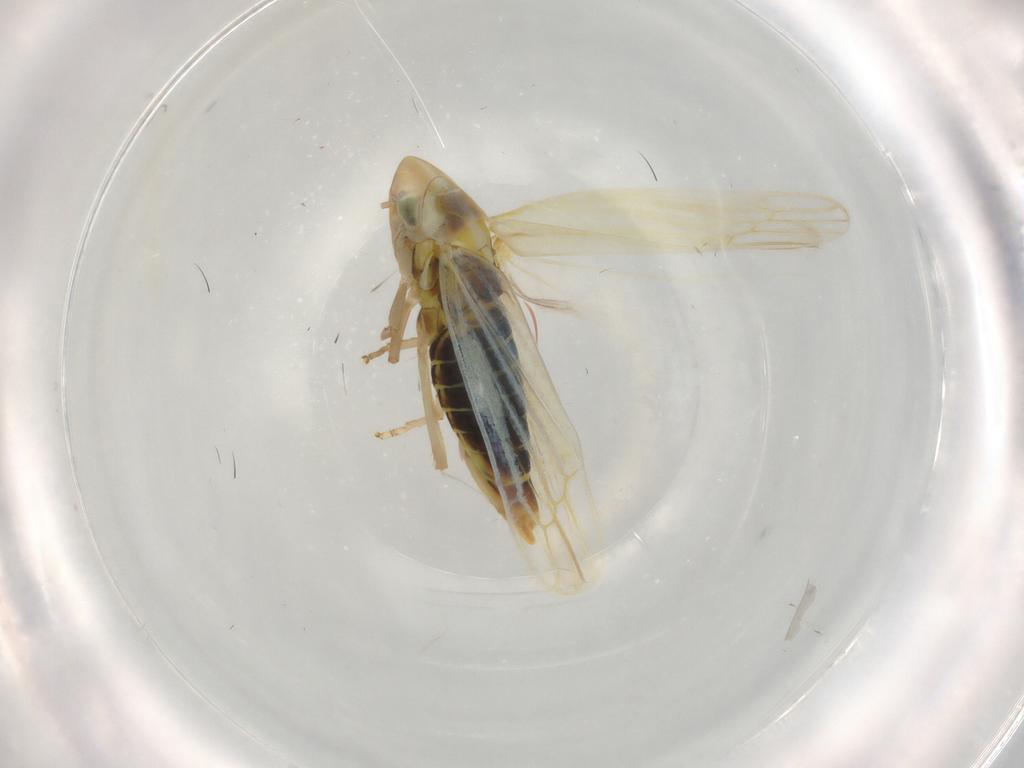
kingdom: Animalia
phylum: Arthropoda
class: Insecta
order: Hemiptera
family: Cicadellidae
